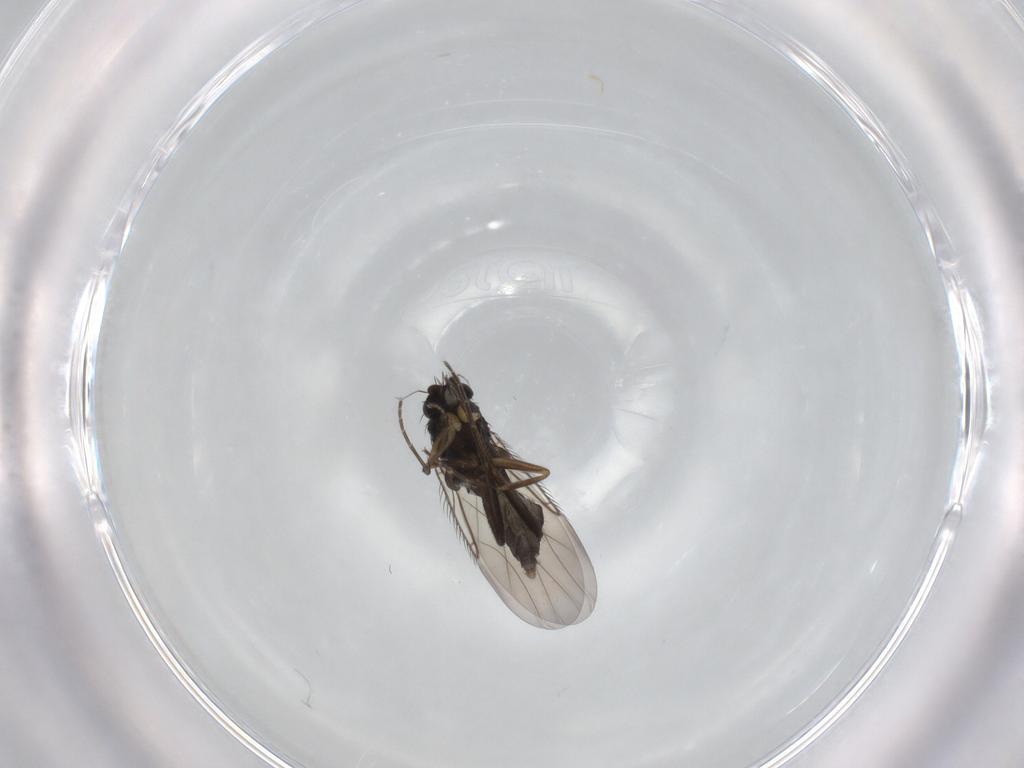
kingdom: Animalia
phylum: Arthropoda
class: Insecta
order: Diptera
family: Phoridae
